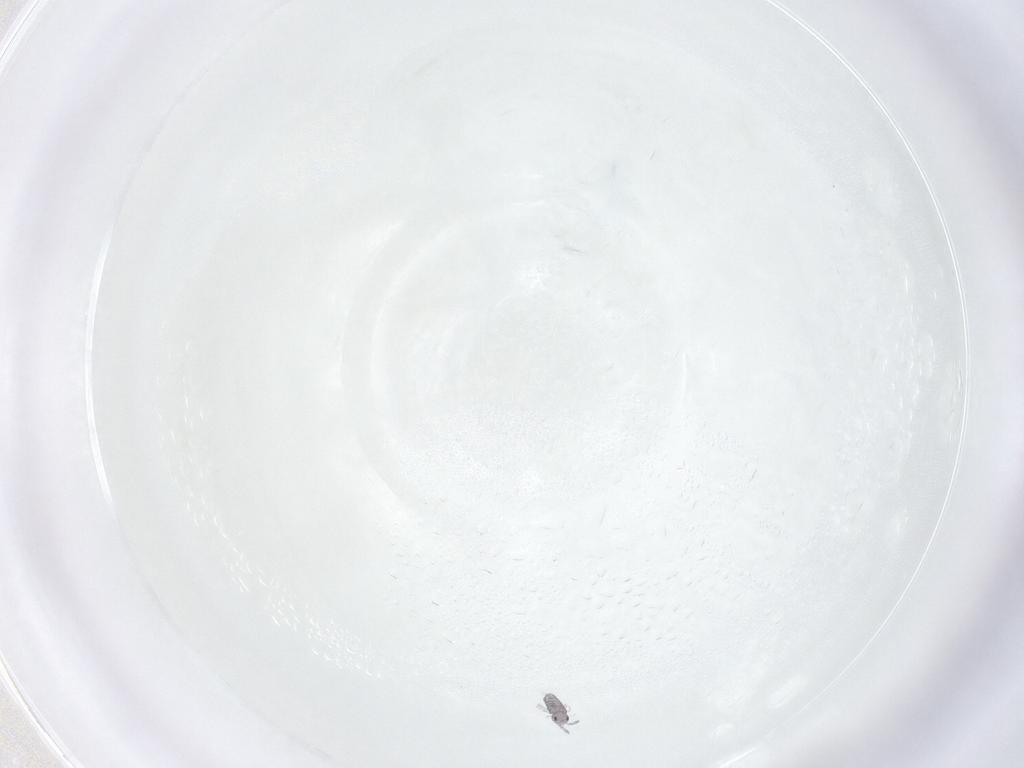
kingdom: Animalia
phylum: Arthropoda
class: Collembola
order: Entomobryomorpha
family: Entomobryidae
